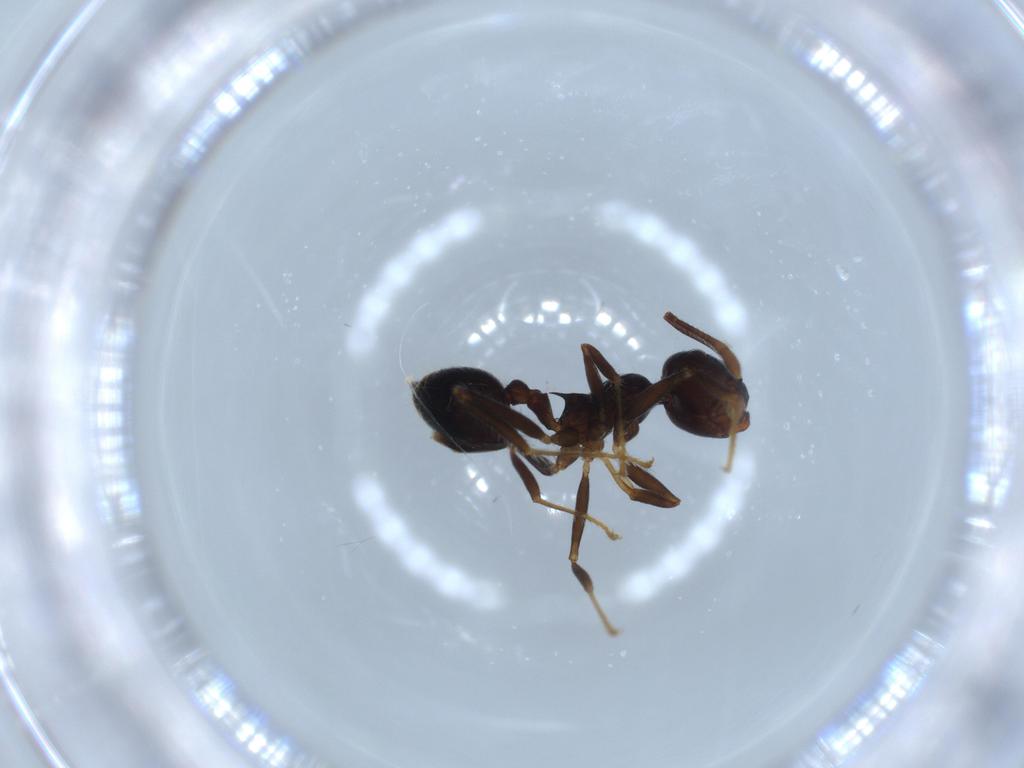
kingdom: Animalia
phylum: Arthropoda
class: Insecta
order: Hymenoptera
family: Formicidae
